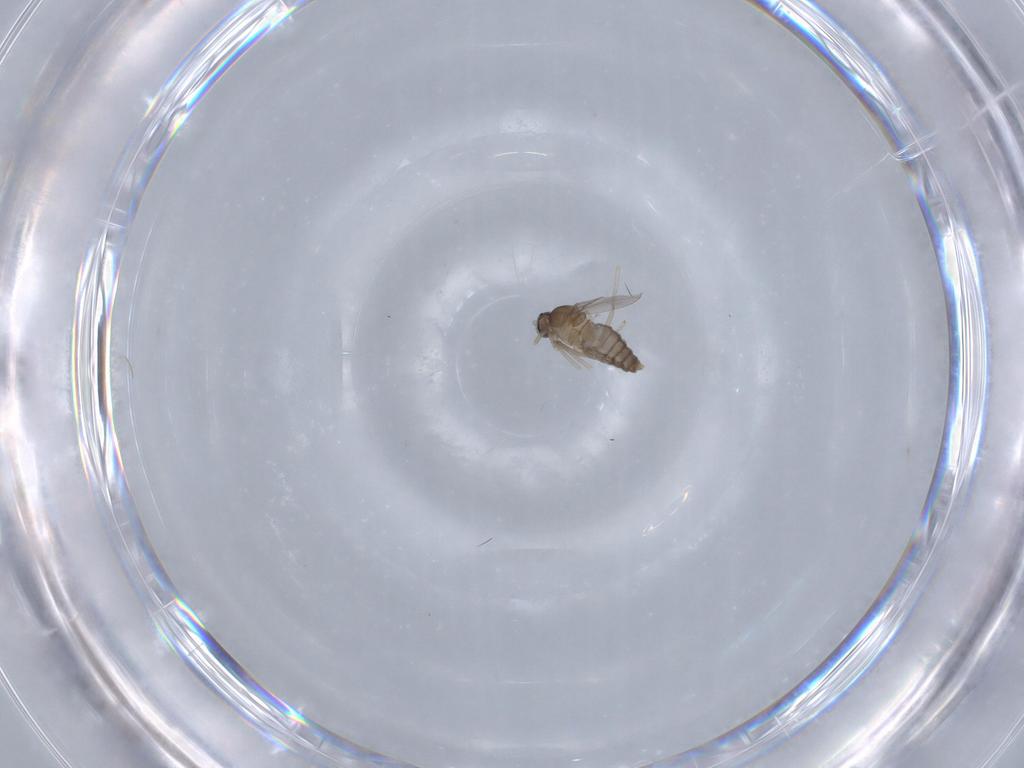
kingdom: Animalia
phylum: Arthropoda
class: Insecta
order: Diptera
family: Cecidomyiidae
